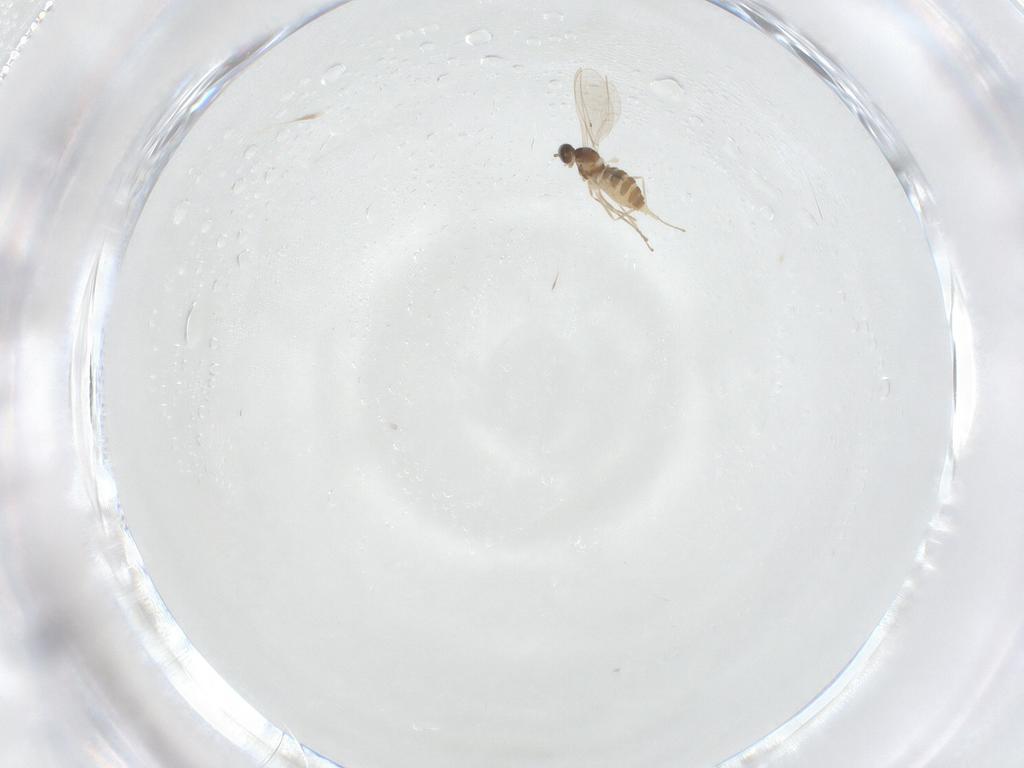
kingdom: Animalia
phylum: Arthropoda
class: Insecta
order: Diptera
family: Cecidomyiidae
